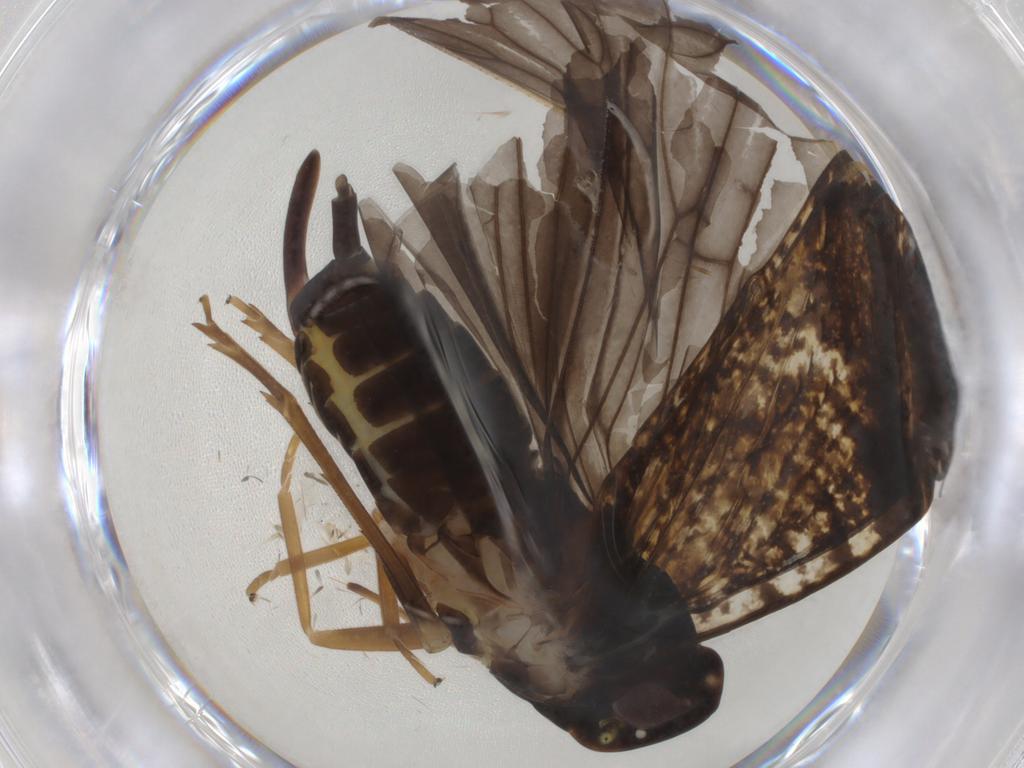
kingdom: Animalia
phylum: Arthropoda
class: Insecta
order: Hemiptera
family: Cixiidae
